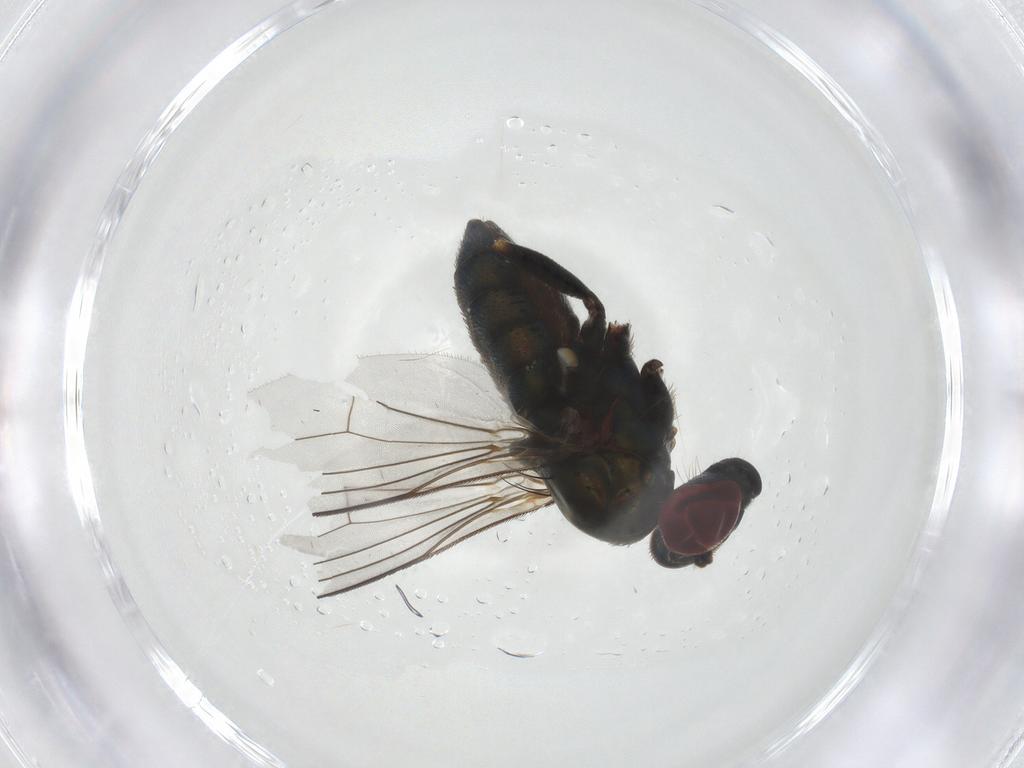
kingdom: Animalia
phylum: Arthropoda
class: Insecta
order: Diptera
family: Dolichopodidae
